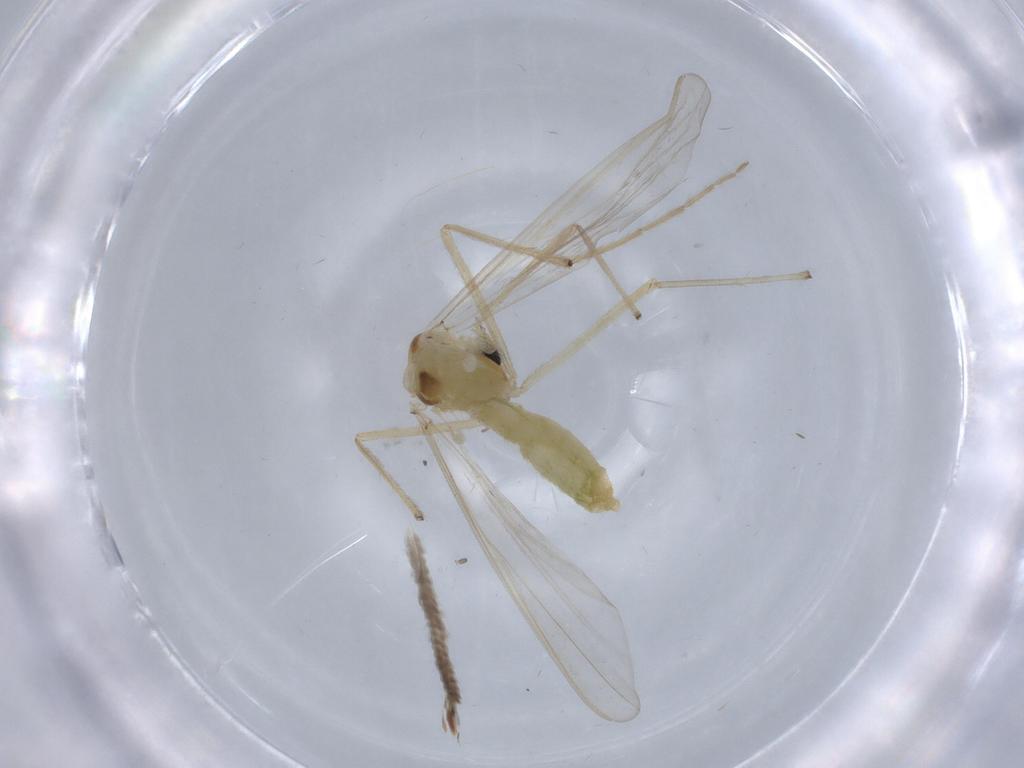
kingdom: Animalia
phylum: Arthropoda
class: Insecta
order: Diptera
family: Chironomidae
